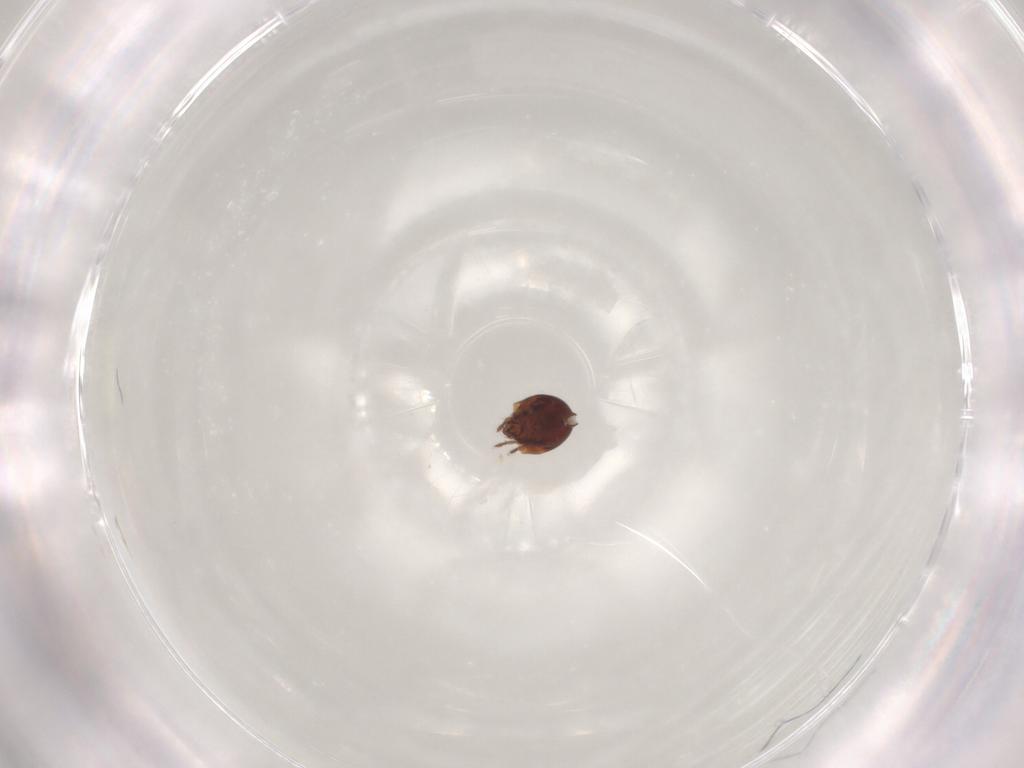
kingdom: Animalia
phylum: Arthropoda
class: Arachnida
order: Sarcoptiformes
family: Humerobatidae
